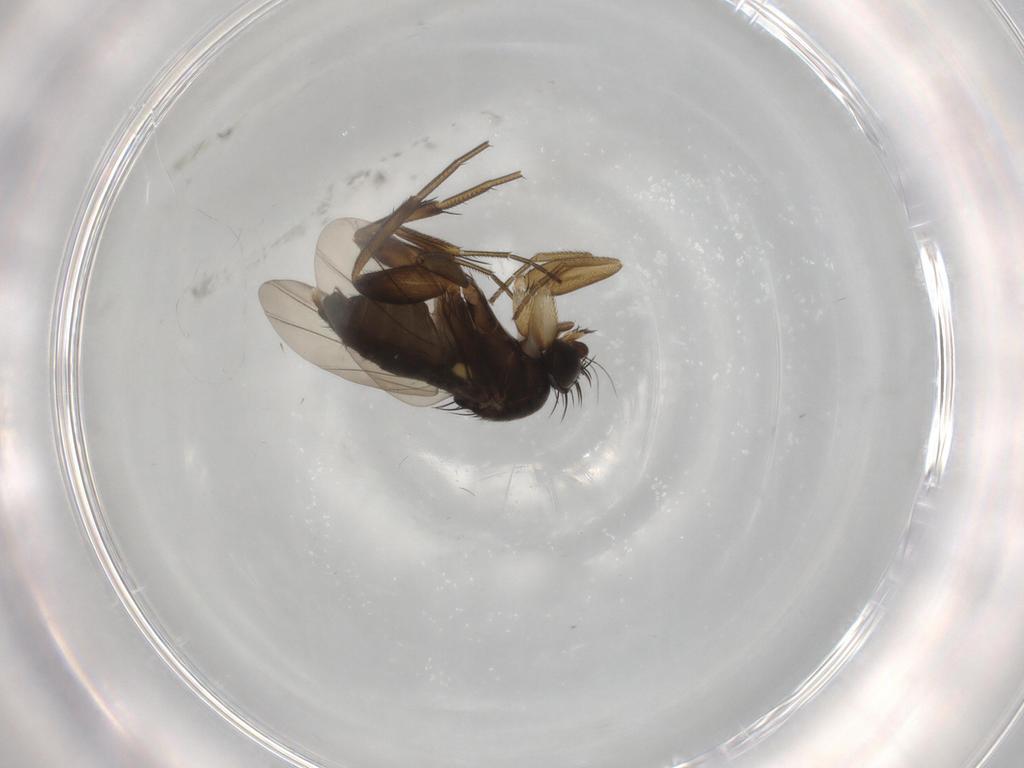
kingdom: Animalia
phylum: Arthropoda
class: Insecta
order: Diptera
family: Phoridae
